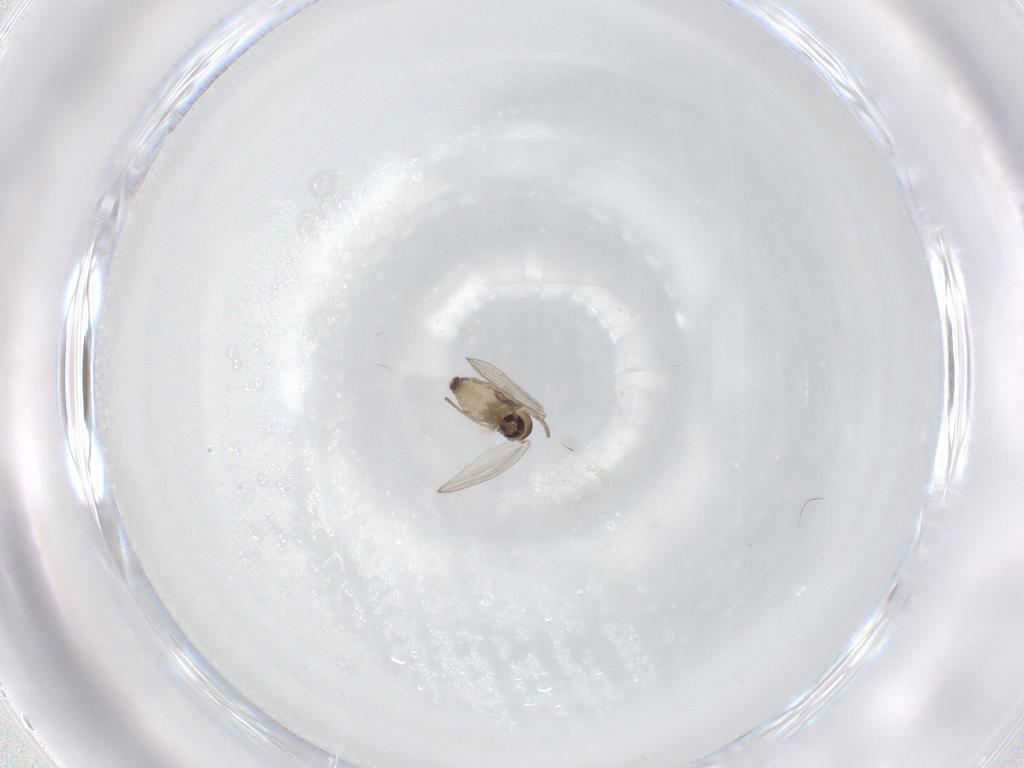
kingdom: Animalia
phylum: Arthropoda
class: Insecta
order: Diptera
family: Psychodidae
